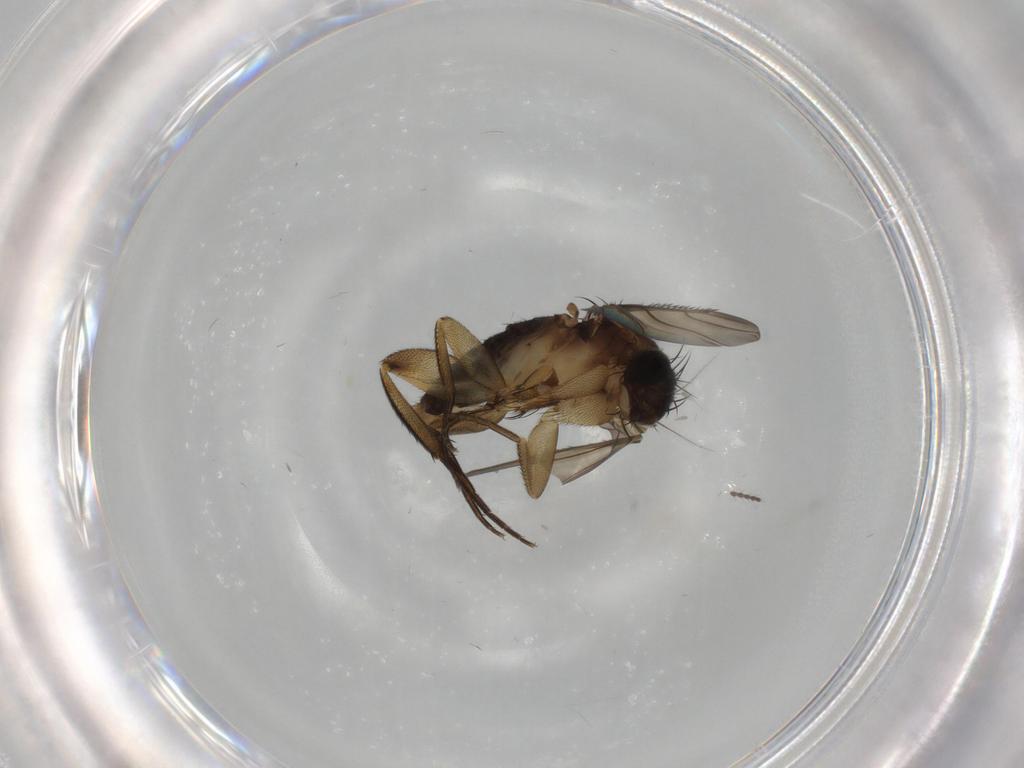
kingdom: Animalia
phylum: Arthropoda
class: Insecta
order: Diptera
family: Phoridae
